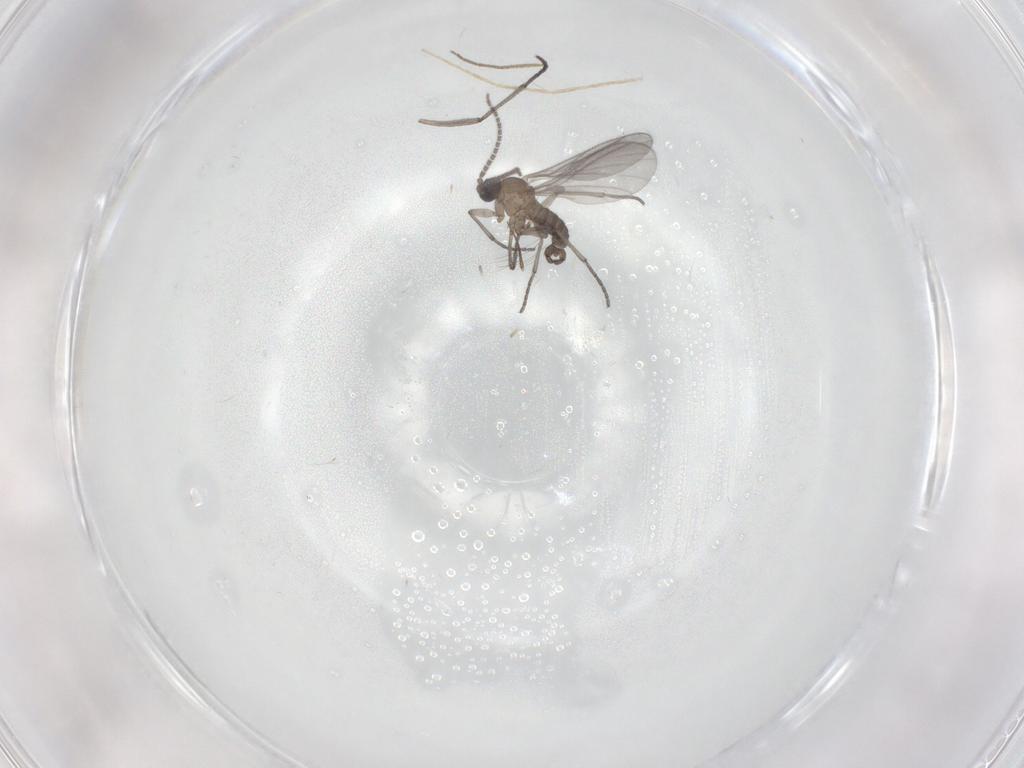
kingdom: Animalia
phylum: Arthropoda
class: Insecta
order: Diptera
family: Sciaridae
